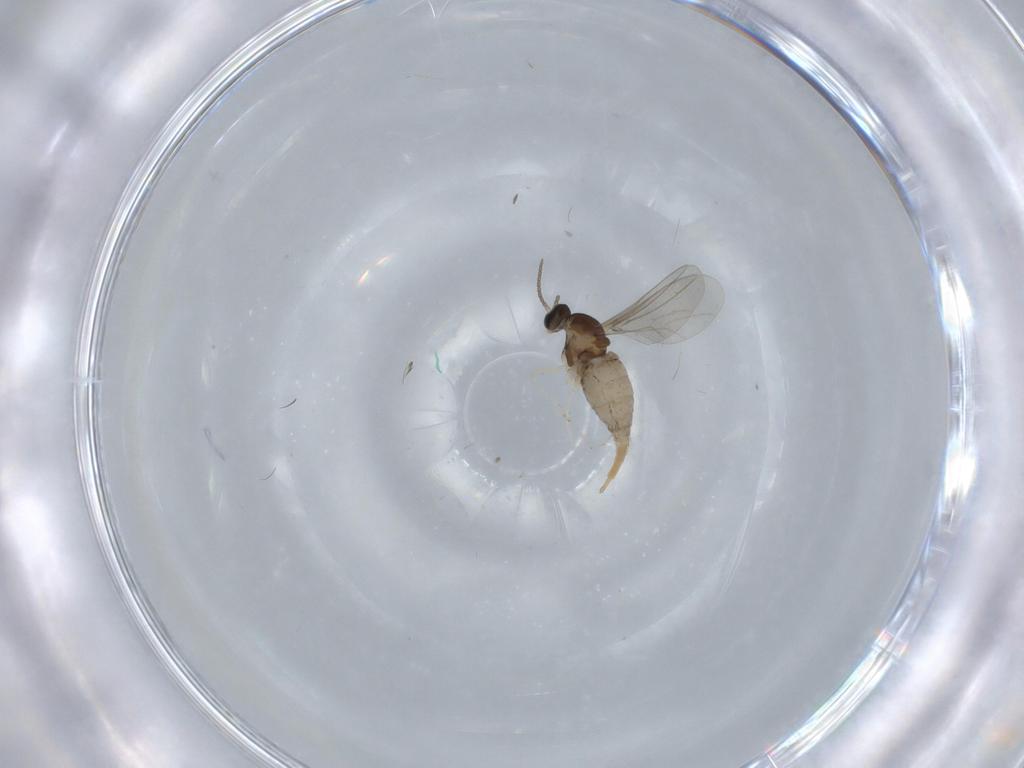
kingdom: Animalia
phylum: Arthropoda
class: Insecta
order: Diptera
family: Cecidomyiidae
